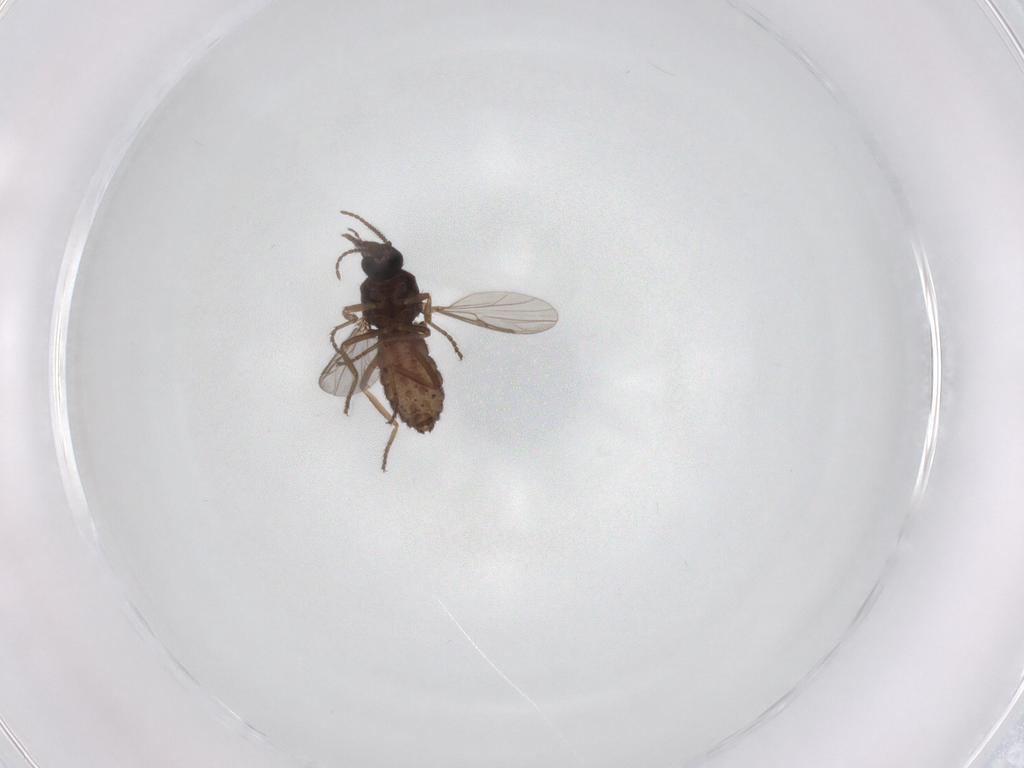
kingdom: Animalia
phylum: Arthropoda
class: Insecta
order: Diptera
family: Ceratopogonidae
